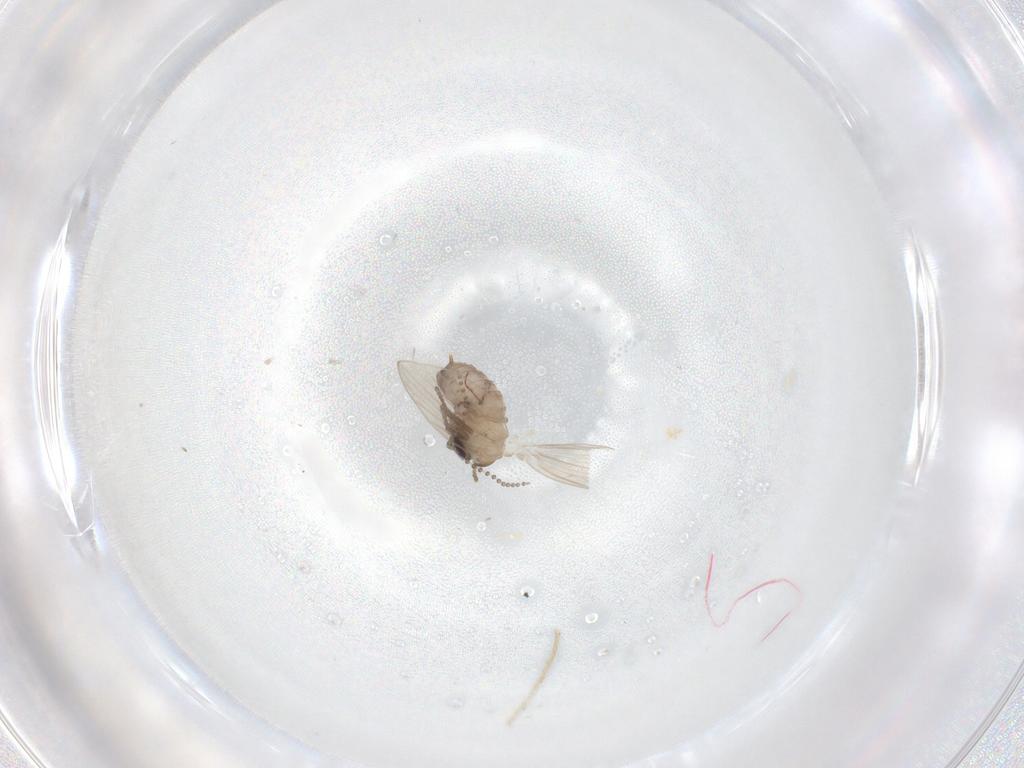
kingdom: Animalia
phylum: Arthropoda
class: Insecta
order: Diptera
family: Psychodidae
